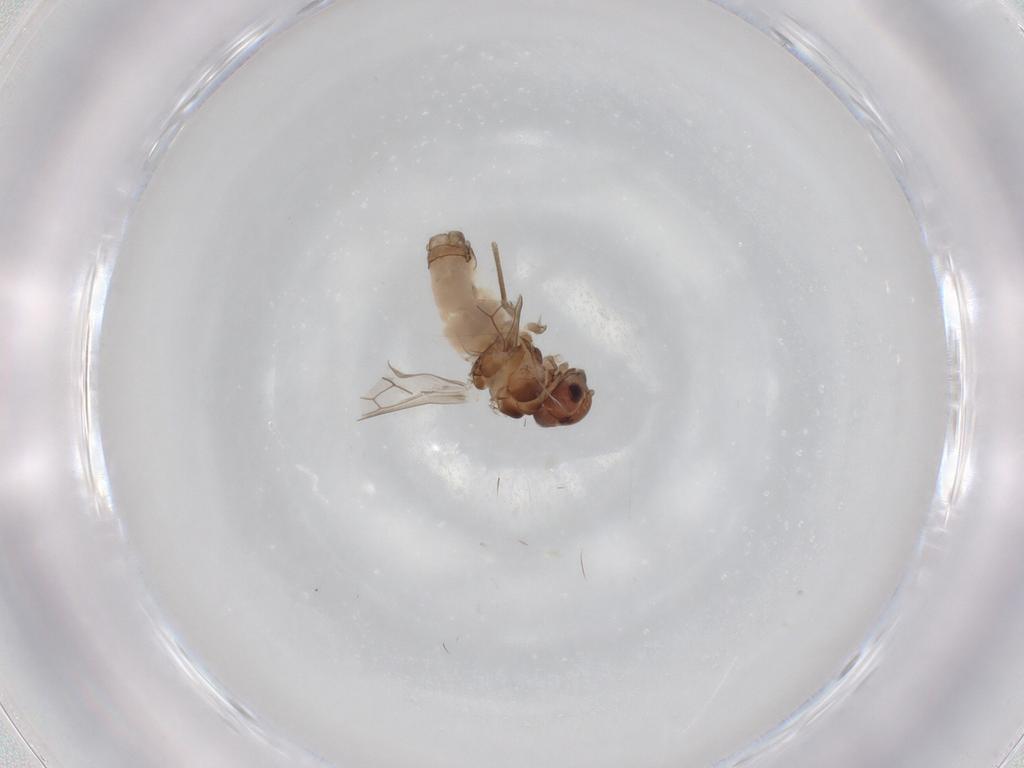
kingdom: Animalia
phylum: Arthropoda
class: Insecta
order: Psocodea
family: Peripsocidae
